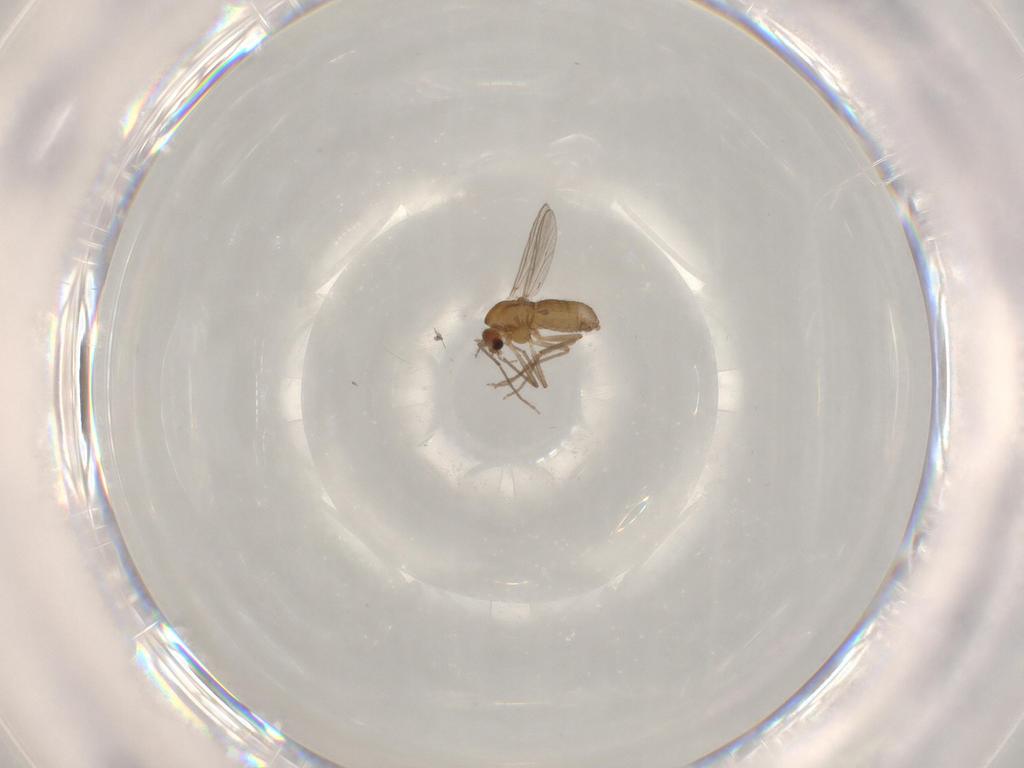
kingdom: Animalia
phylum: Arthropoda
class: Insecta
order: Diptera
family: Chironomidae
